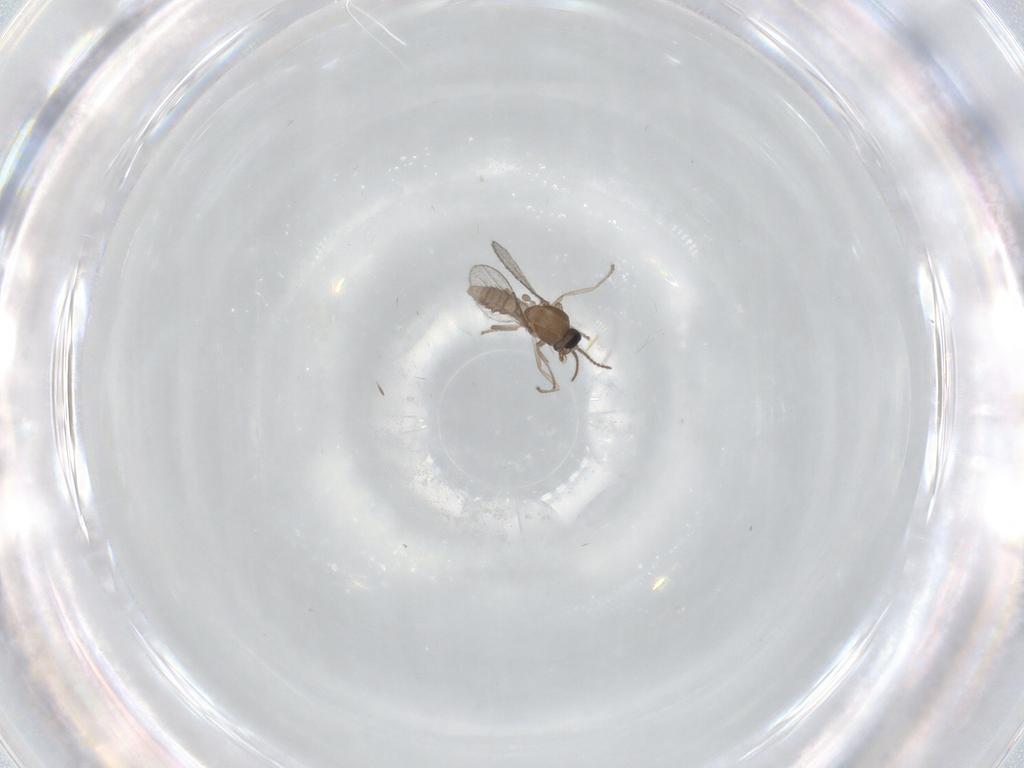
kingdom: Animalia
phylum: Arthropoda
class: Insecta
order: Diptera
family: Ceratopogonidae
